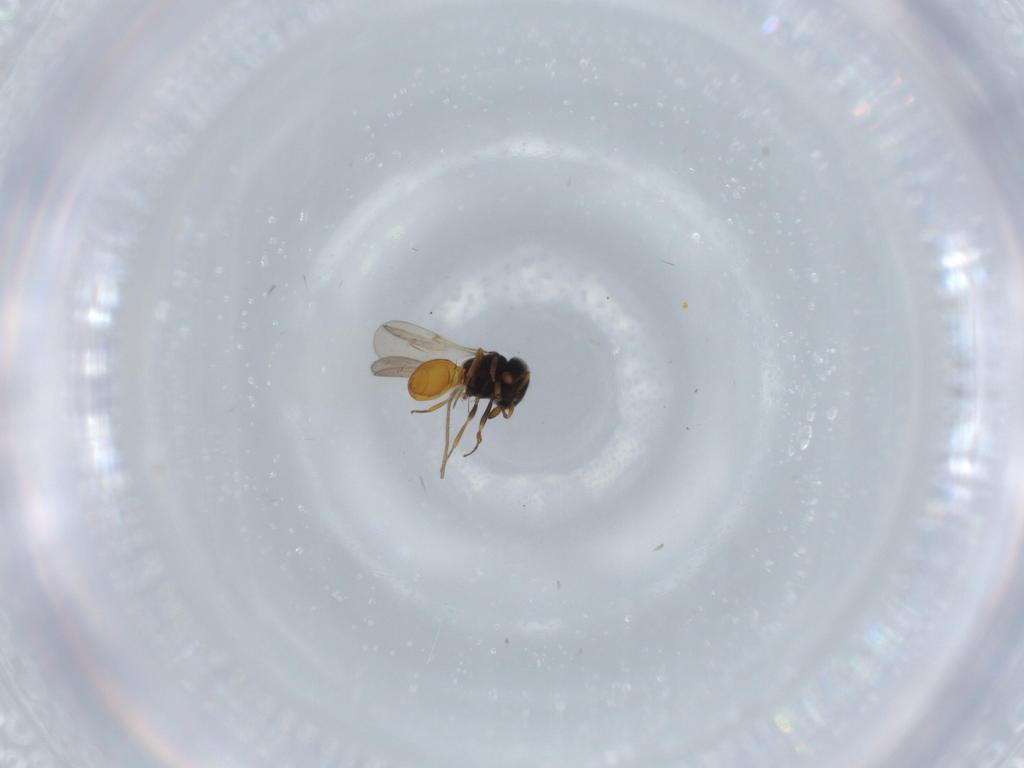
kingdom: Animalia
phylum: Arthropoda
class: Insecta
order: Hymenoptera
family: Scelionidae
